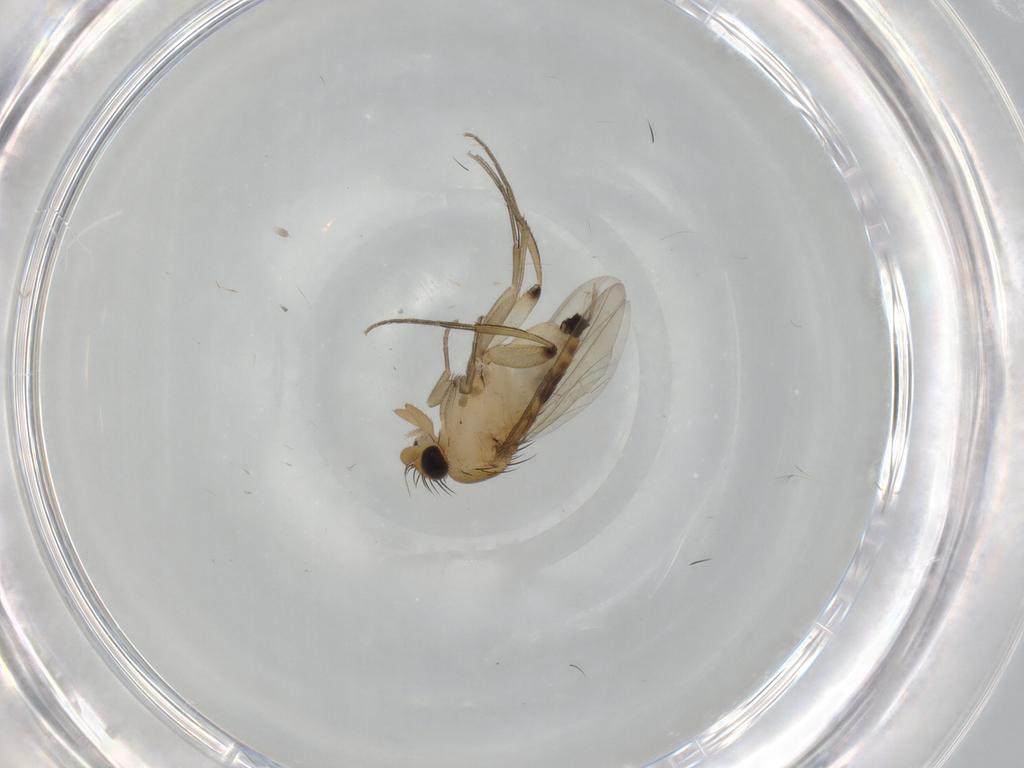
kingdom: Animalia
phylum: Arthropoda
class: Insecta
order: Diptera
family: Phoridae
